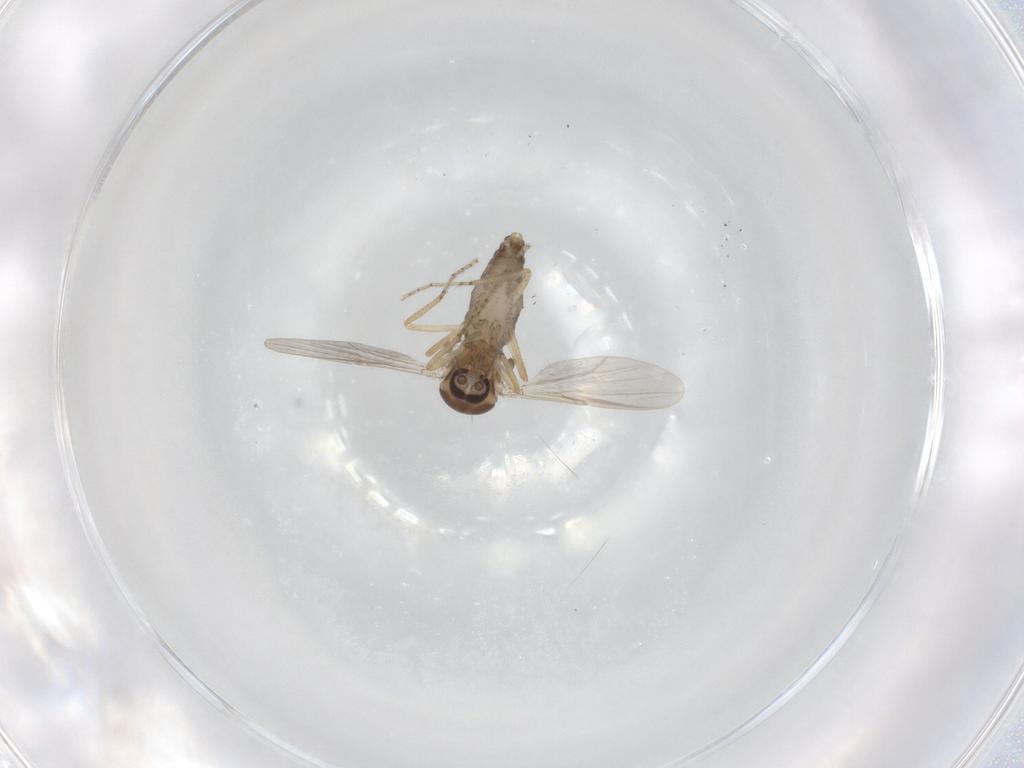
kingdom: Animalia
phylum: Arthropoda
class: Insecta
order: Diptera
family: Ceratopogonidae
